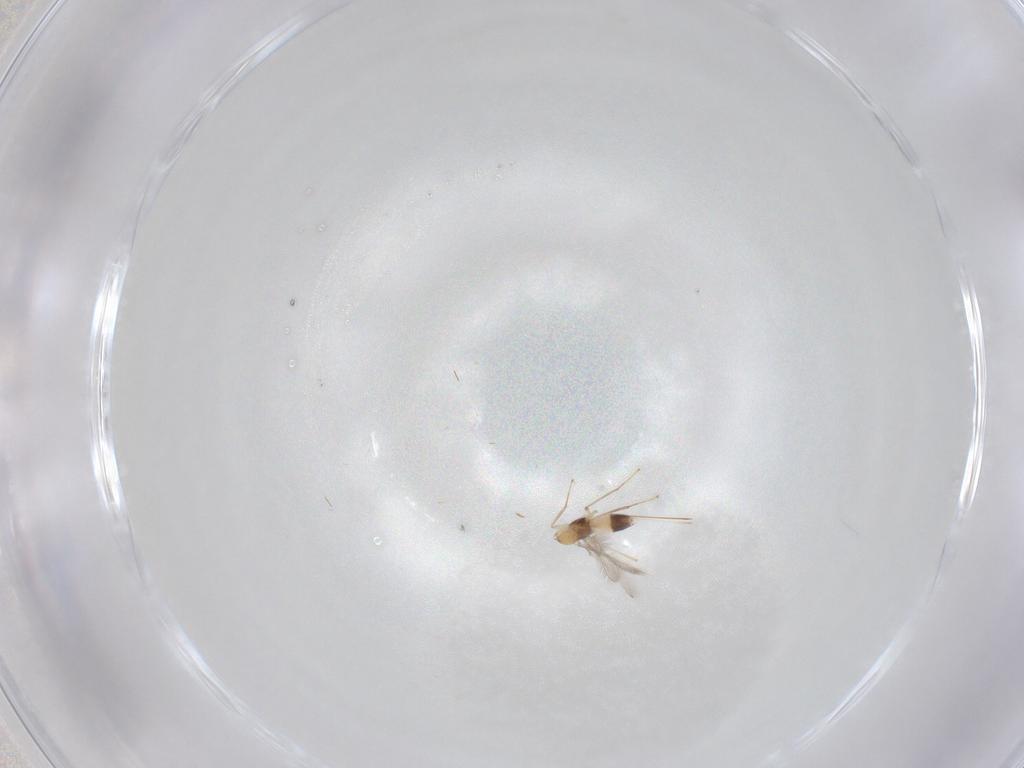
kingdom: Animalia
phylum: Arthropoda
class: Insecta
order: Hymenoptera
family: Mymaridae
